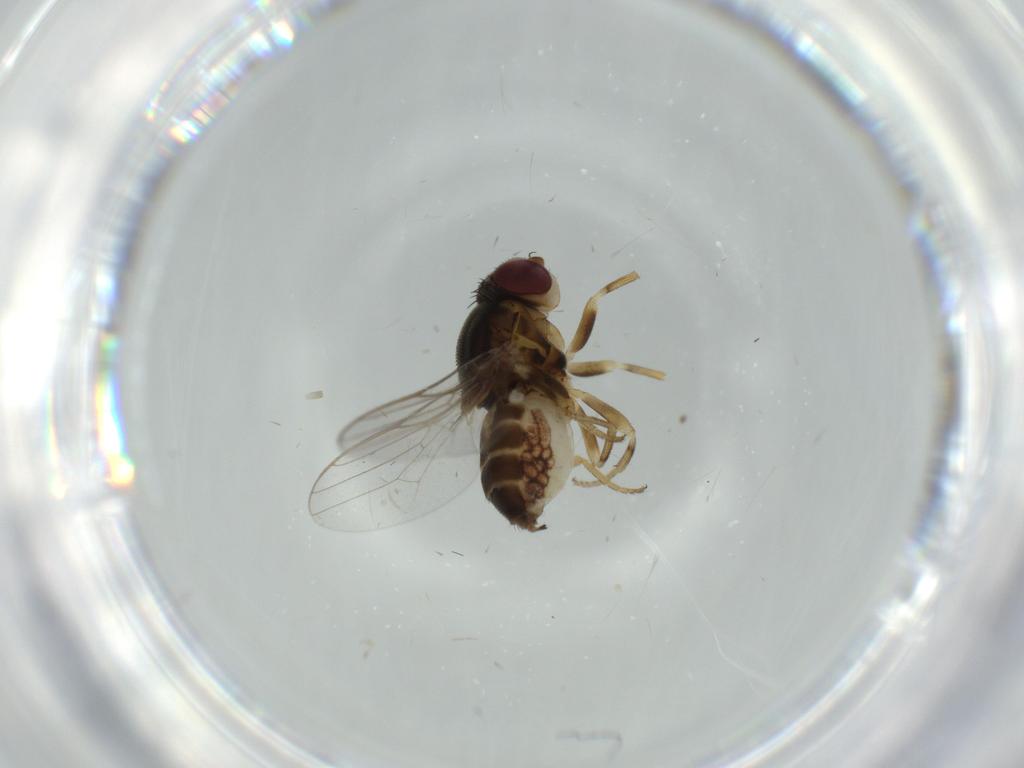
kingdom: Animalia
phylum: Arthropoda
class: Insecta
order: Diptera
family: Chloropidae
